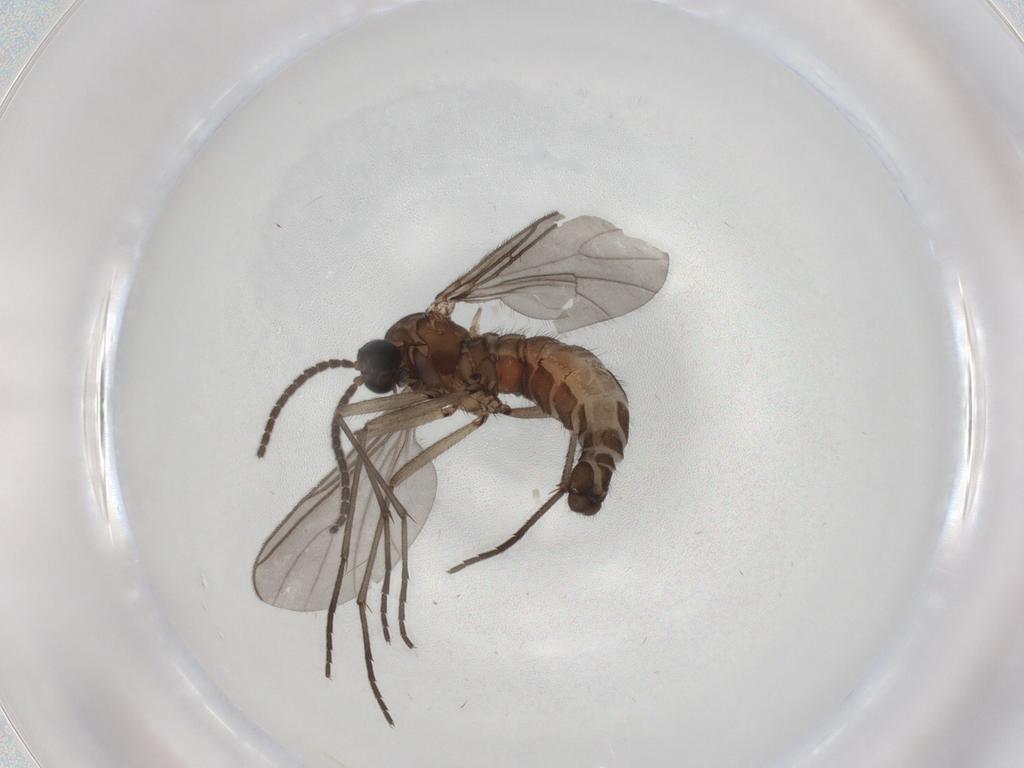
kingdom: Animalia
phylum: Arthropoda
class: Insecta
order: Diptera
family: Sciaridae
